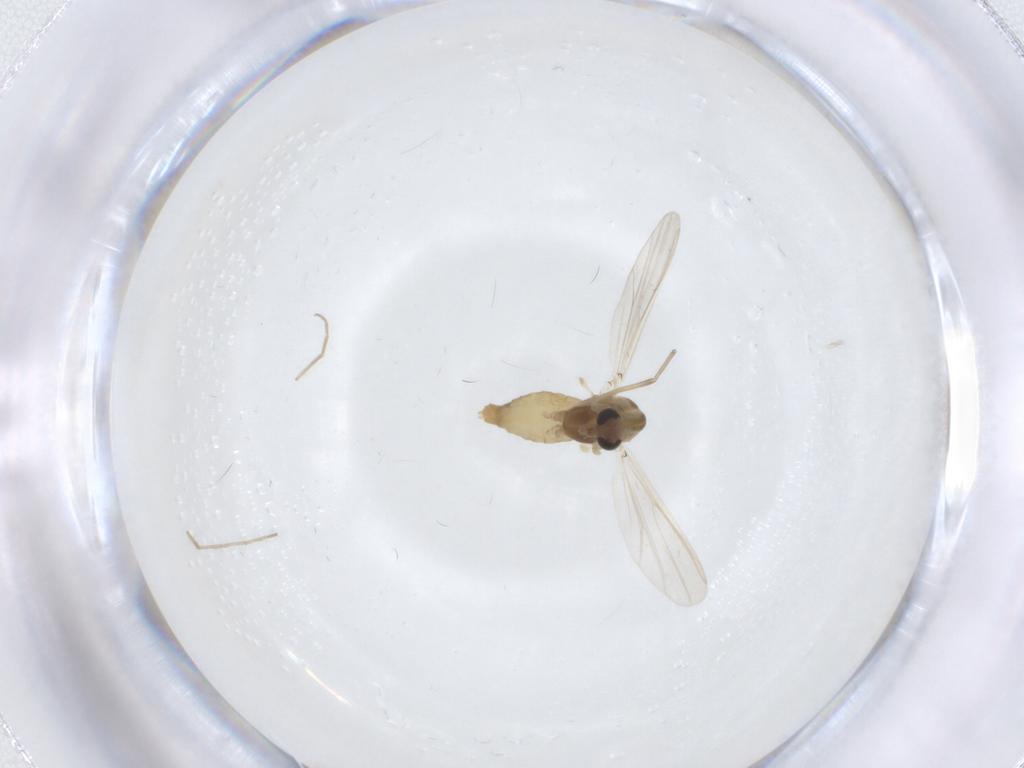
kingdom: Animalia
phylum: Arthropoda
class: Insecta
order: Diptera
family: Chironomidae
